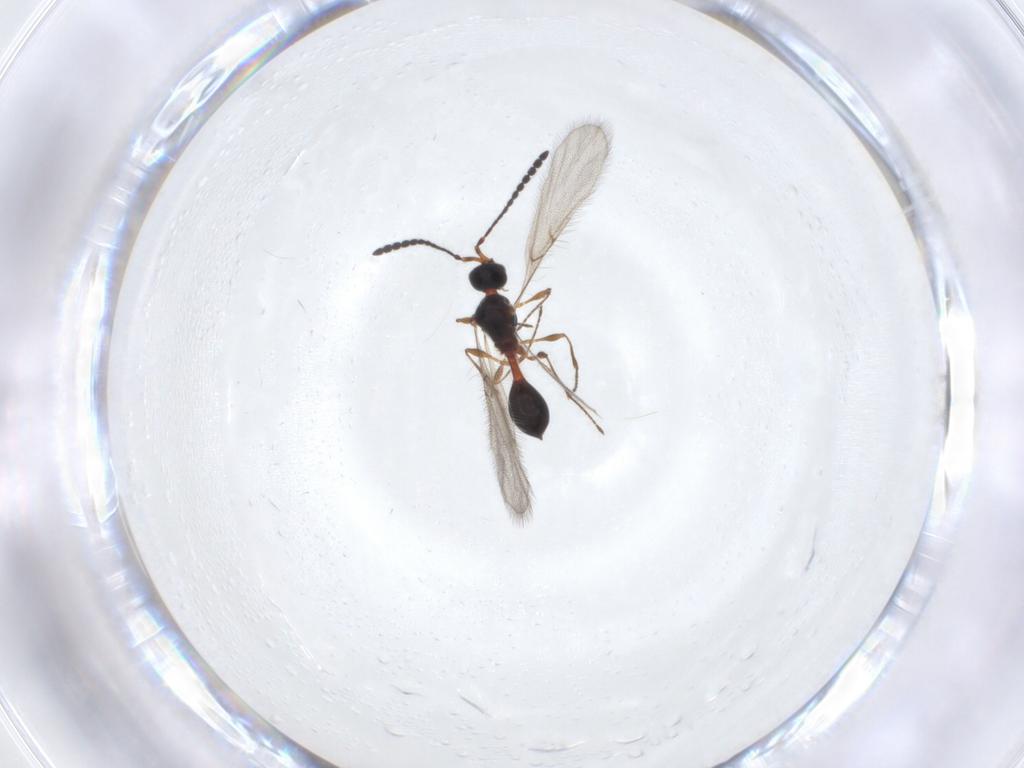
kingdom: Animalia
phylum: Arthropoda
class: Insecta
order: Hymenoptera
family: Diapriidae
